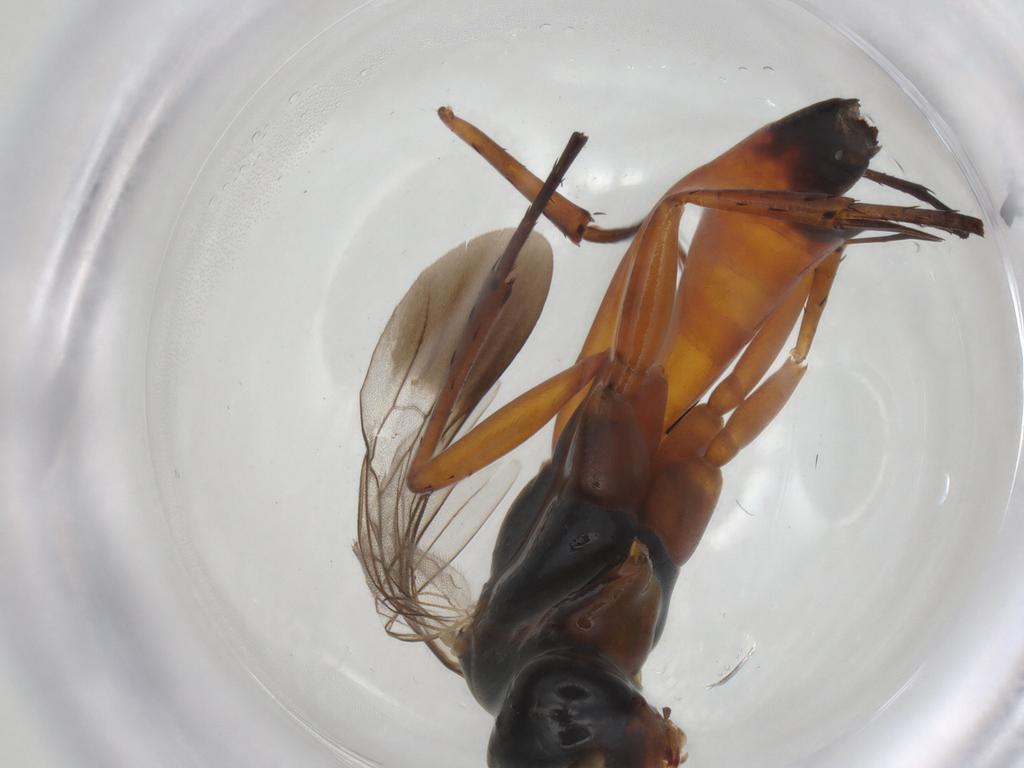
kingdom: Animalia
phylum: Arthropoda
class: Insecta
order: Hymenoptera
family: Pompilidae
